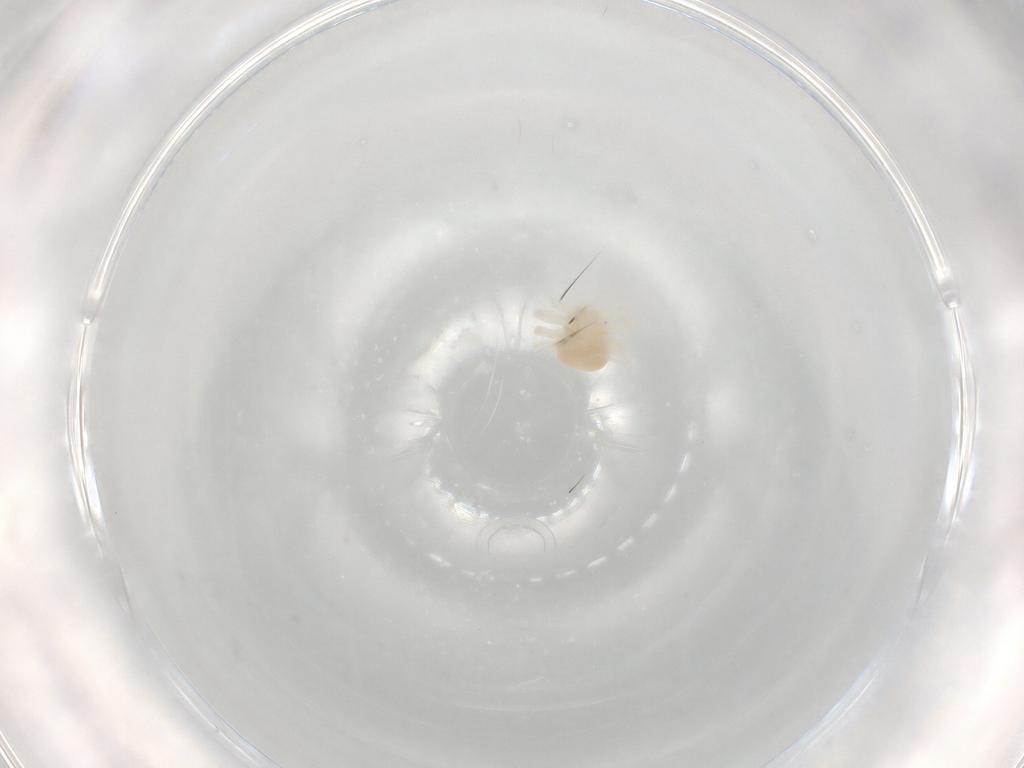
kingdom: Animalia
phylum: Arthropoda
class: Arachnida
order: Trombidiformes
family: Anystidae
